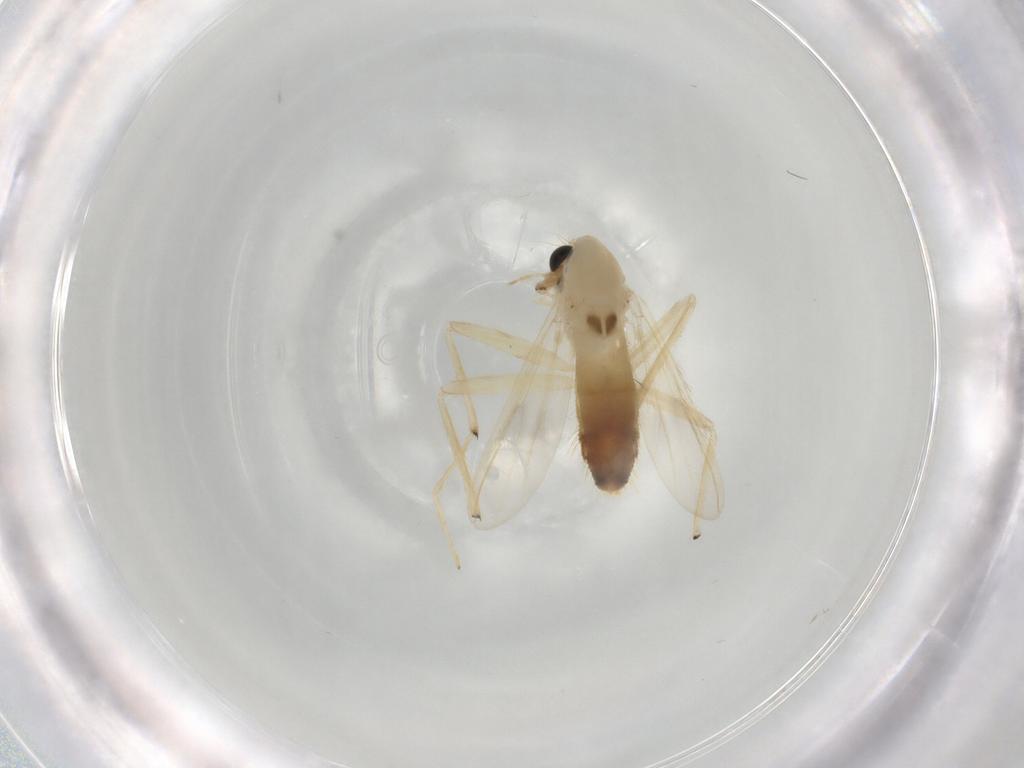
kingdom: Animalia
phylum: Arthropoda
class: Insecta
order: Diptera
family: Chironomidae
